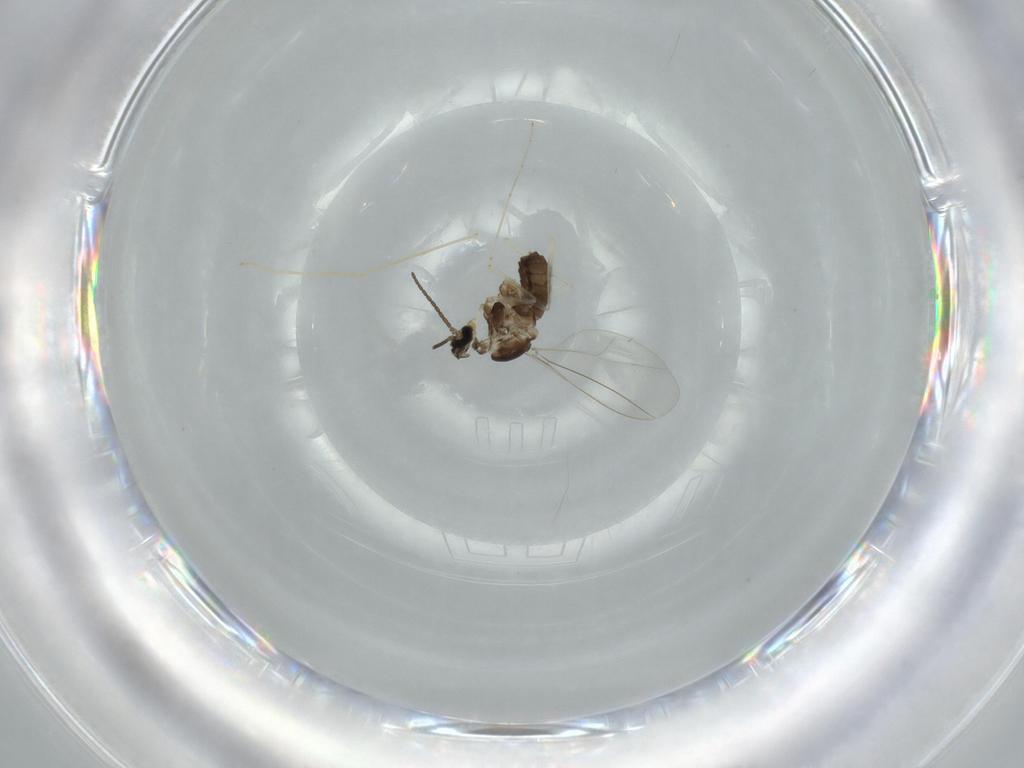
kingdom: Animalia
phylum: Arthropoda
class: Insecta
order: Diptera
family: Cecidomyiidae
